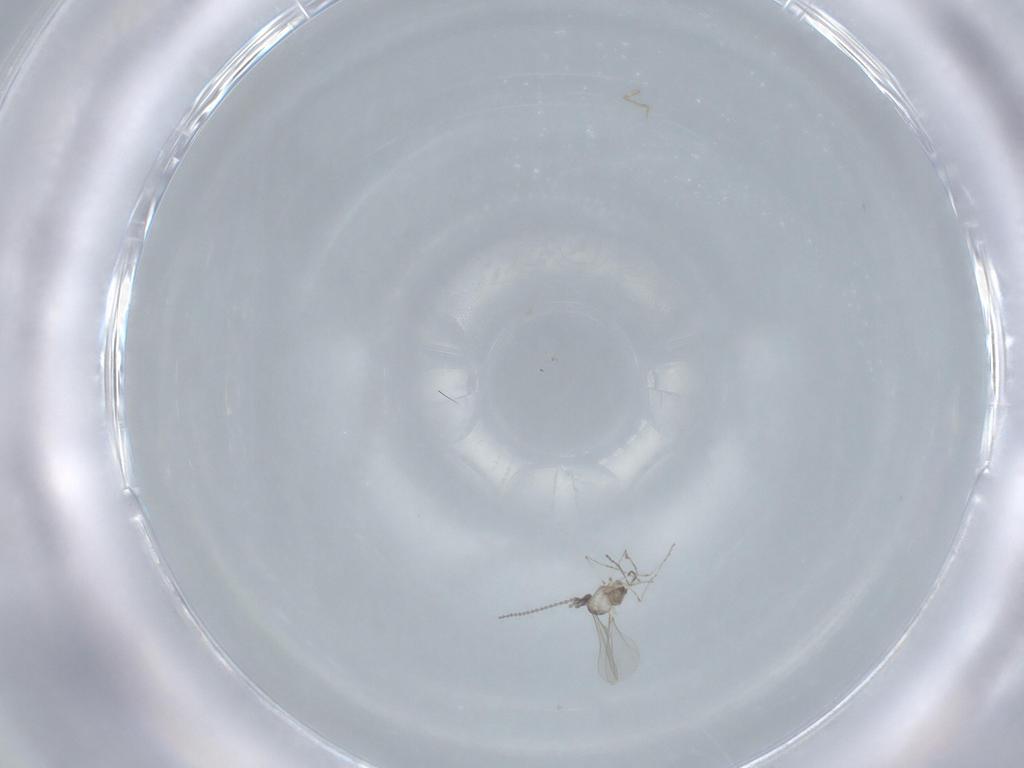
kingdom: Animalia
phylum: Arthropoda
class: Insecta
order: Diptera
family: Cecidomyiidae
